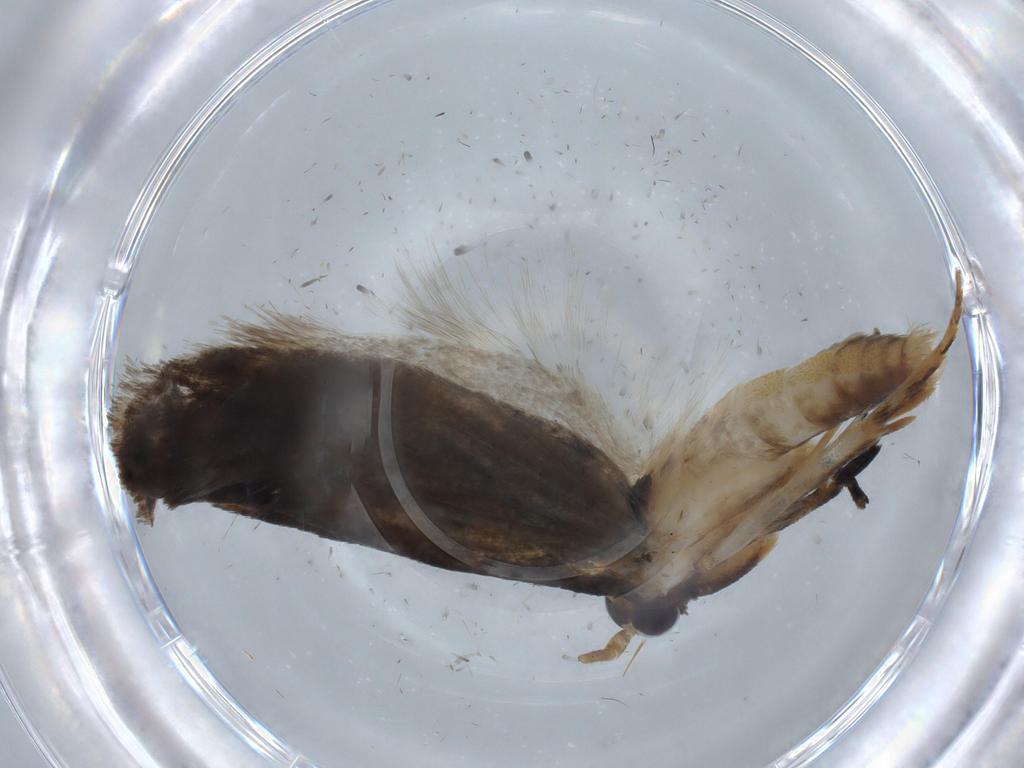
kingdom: Animalia
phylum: Arthropoda
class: Insecta
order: Lepidoptera
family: Oecophoridae
